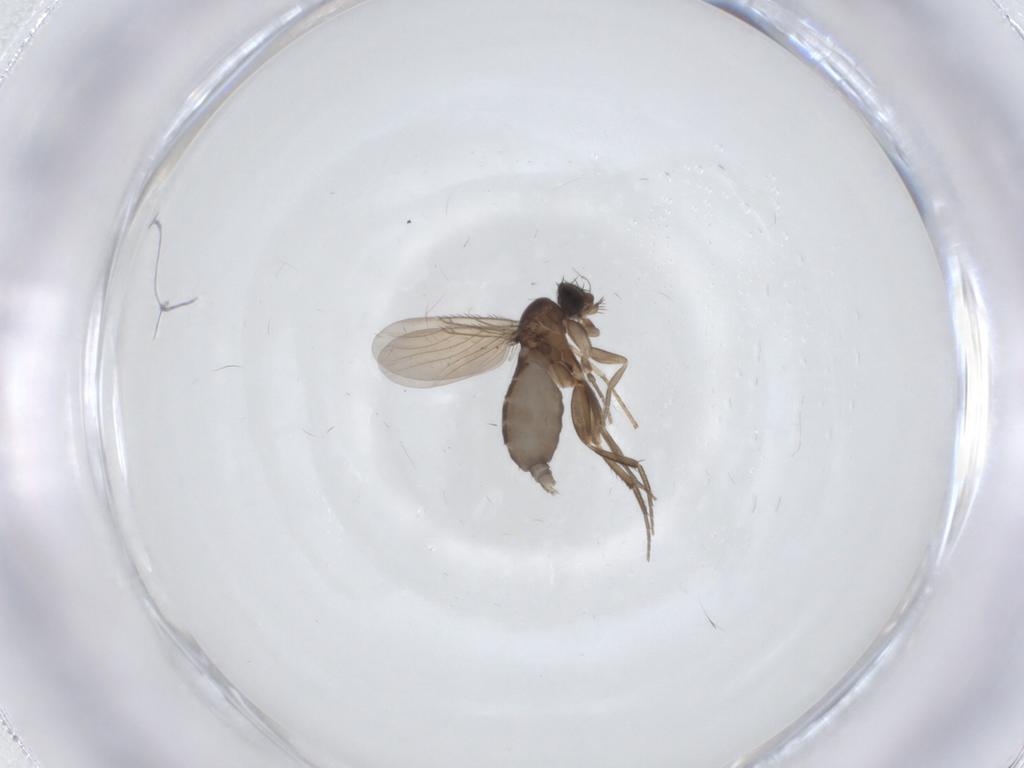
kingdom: Animalia
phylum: Arthropoda
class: Insecta
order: Diptera
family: Phoridae
